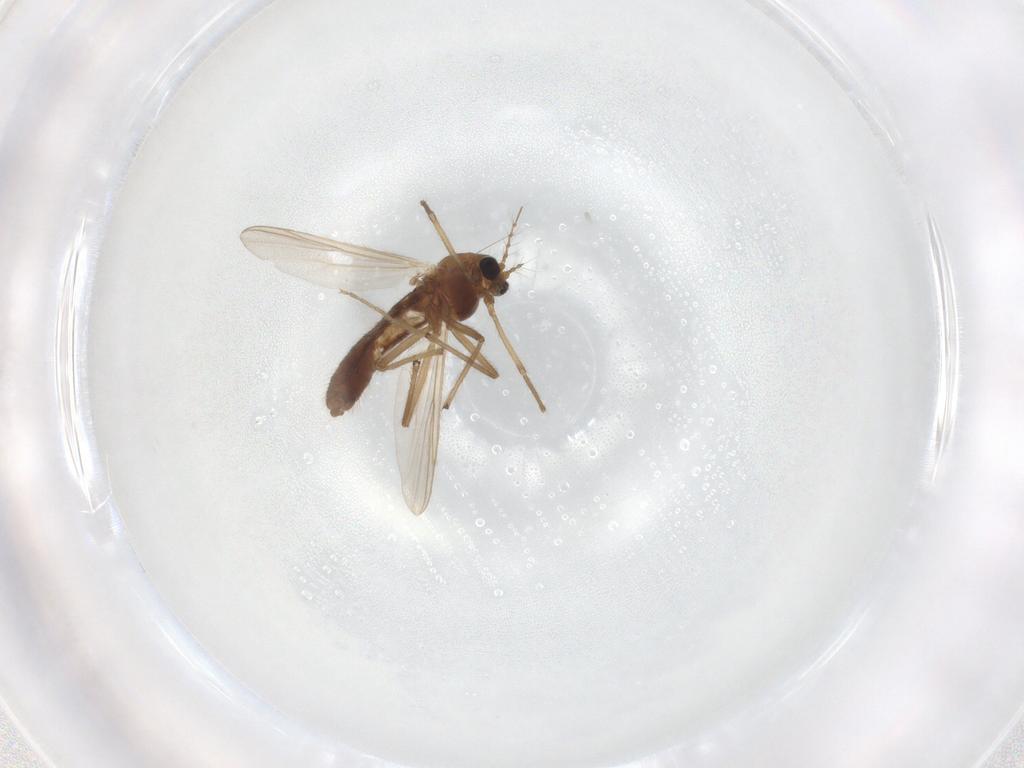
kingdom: Animalia
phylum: Arthropoda
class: Insecta
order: Diptera
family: Chironomidae
